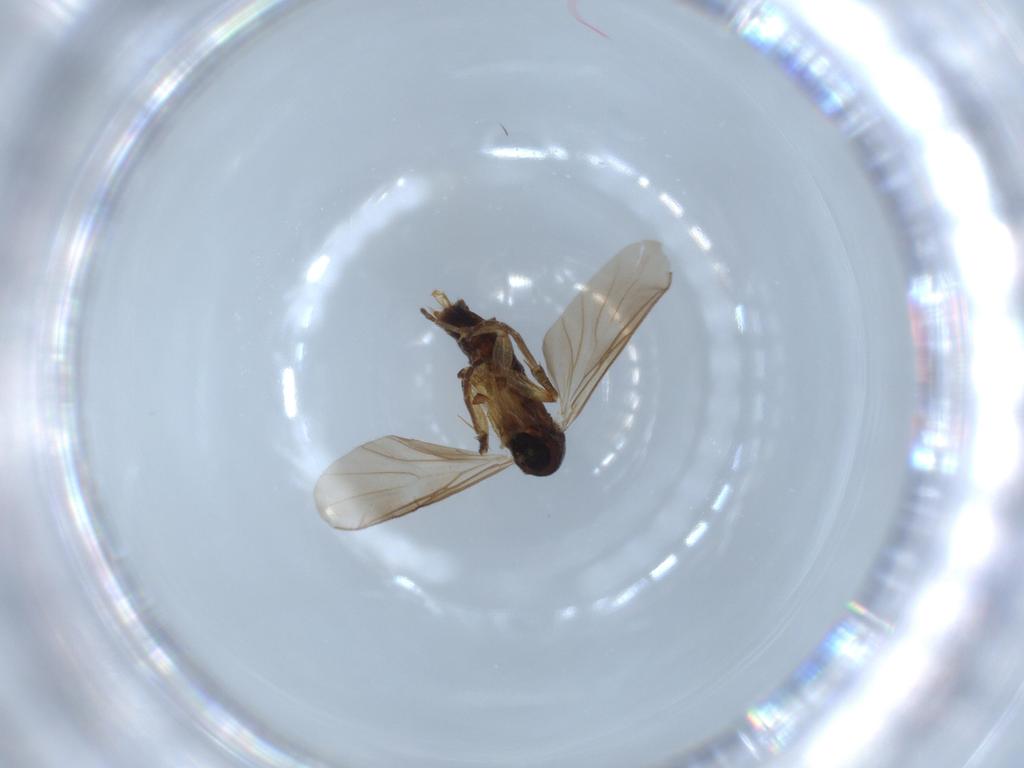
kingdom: Animalia
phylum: Arthropoda
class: Insecta
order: Diptera
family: Mycetophilidae
